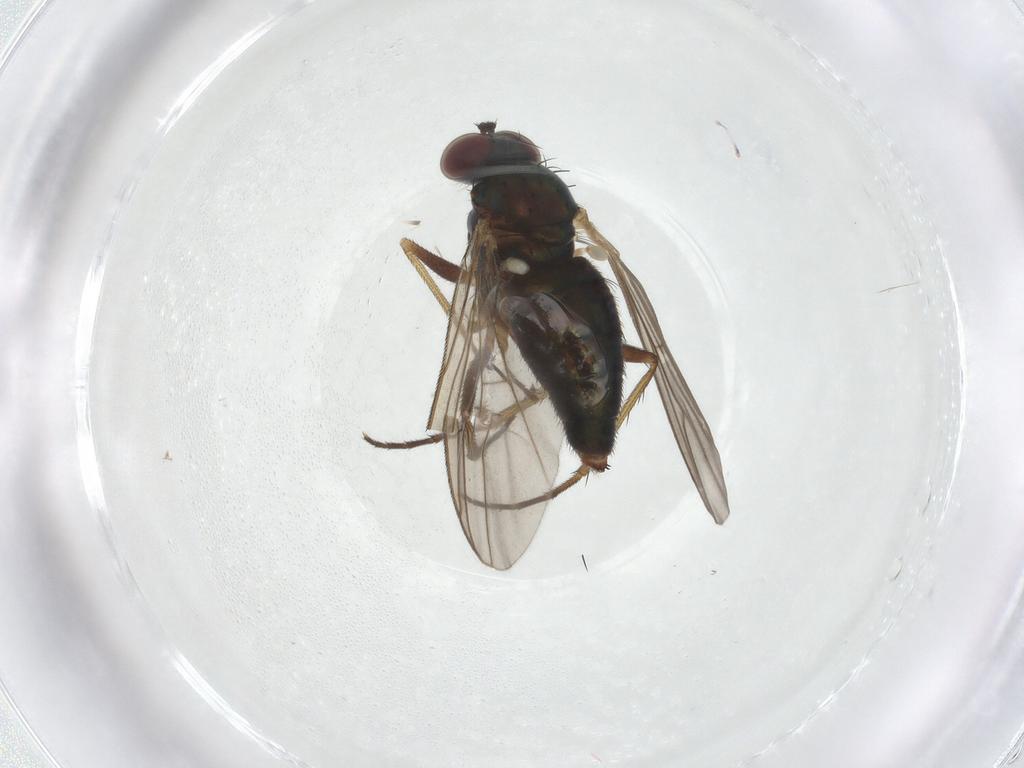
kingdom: Animalia
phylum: Arthropoda
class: Insecta
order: Diptera
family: Dolichopodidae
